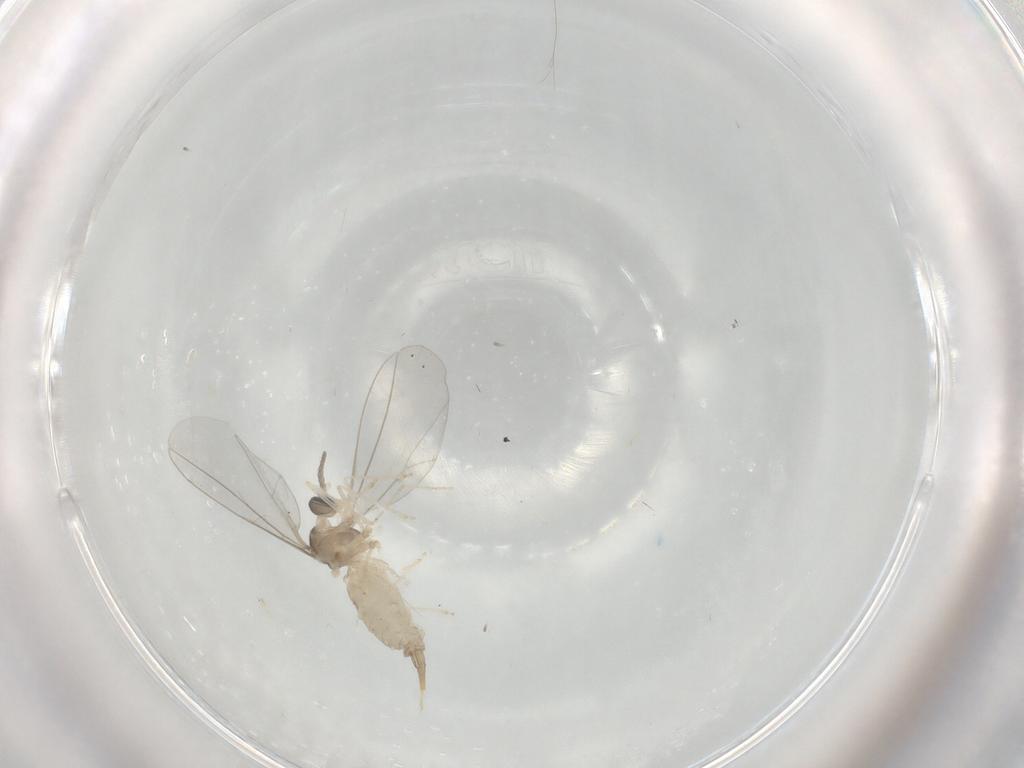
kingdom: Animalia
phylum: Arthropoda
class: Insecta
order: Diptera
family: Mycetophilidae
